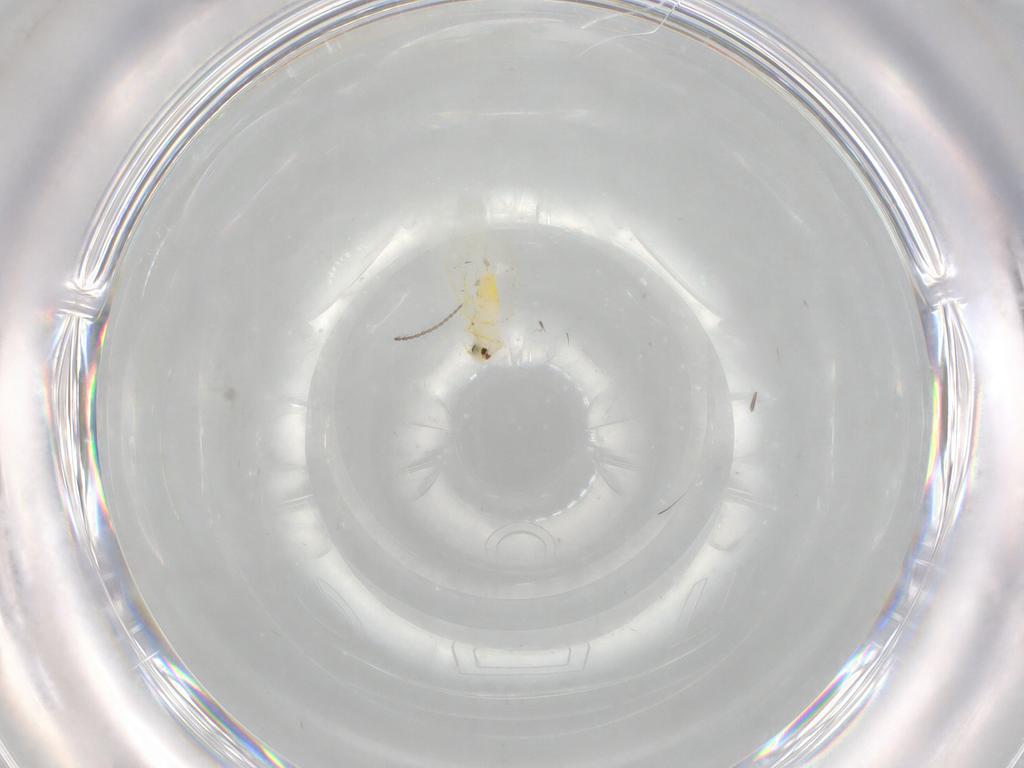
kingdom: Animalia
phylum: Arthropoda
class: Insecta
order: Hemiptera
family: Aleyrodidae
